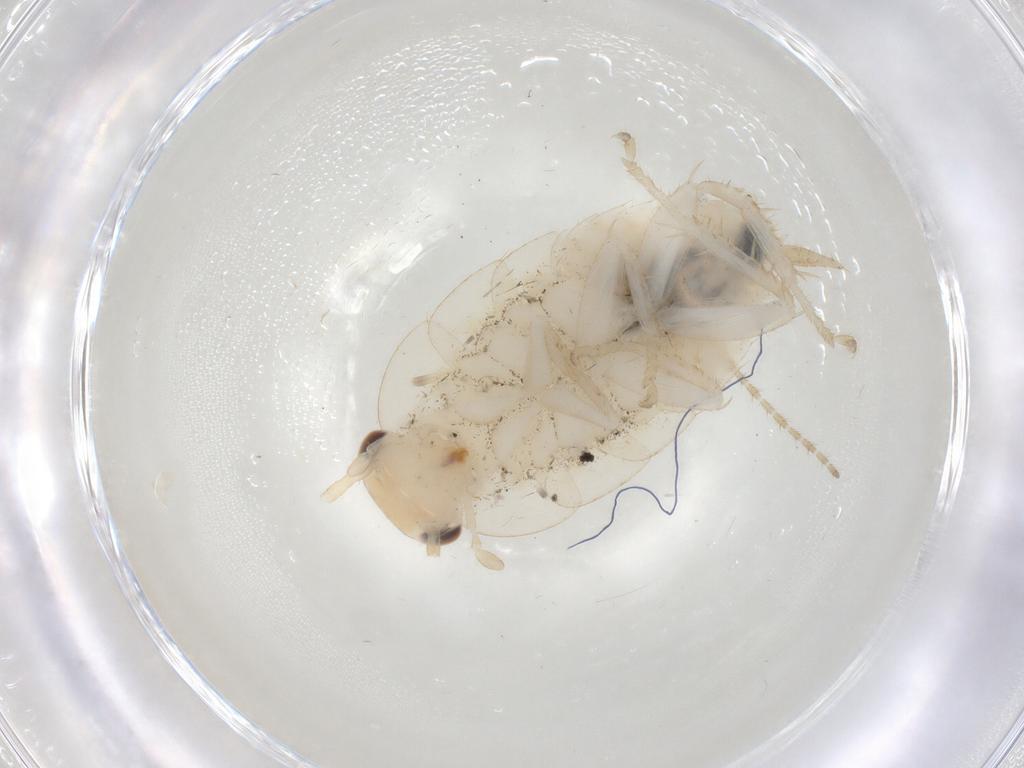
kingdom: Animalia
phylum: Arthropoda
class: Insecta
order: Blattodea
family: Ectobiidae
